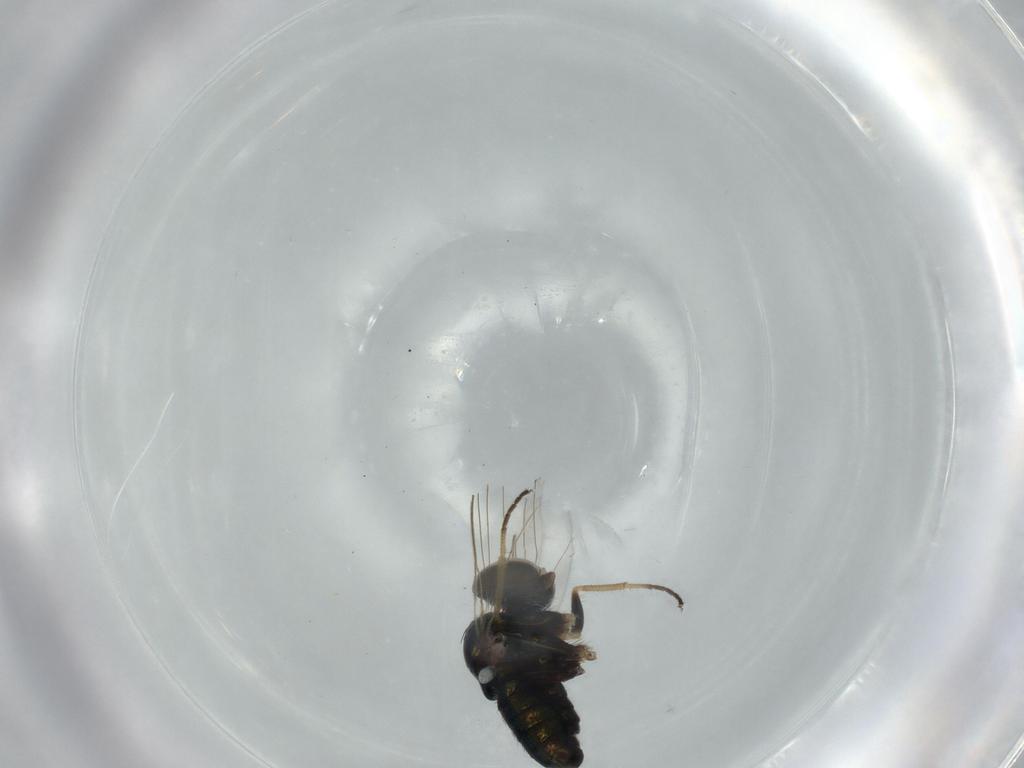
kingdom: Animalia
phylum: Arthropoda
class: Insecta
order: Diptera
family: Dolichopodidae
